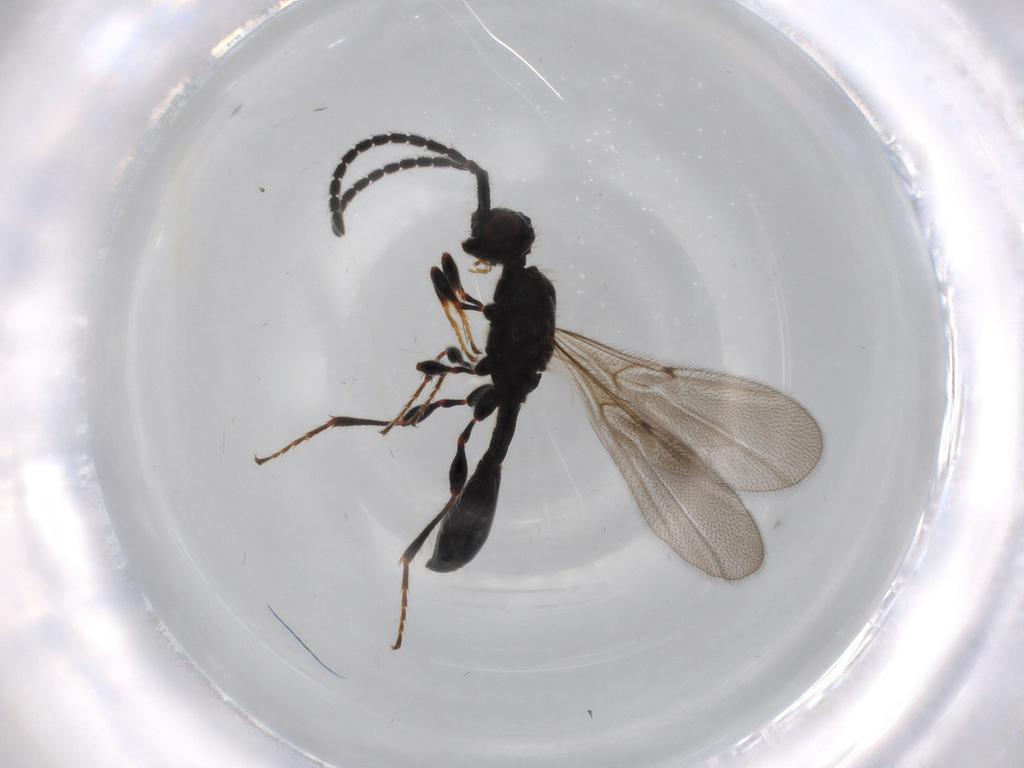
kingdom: Animalia
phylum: Arthropoda
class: Insecta
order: Hymenoptera
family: Diapriidae
